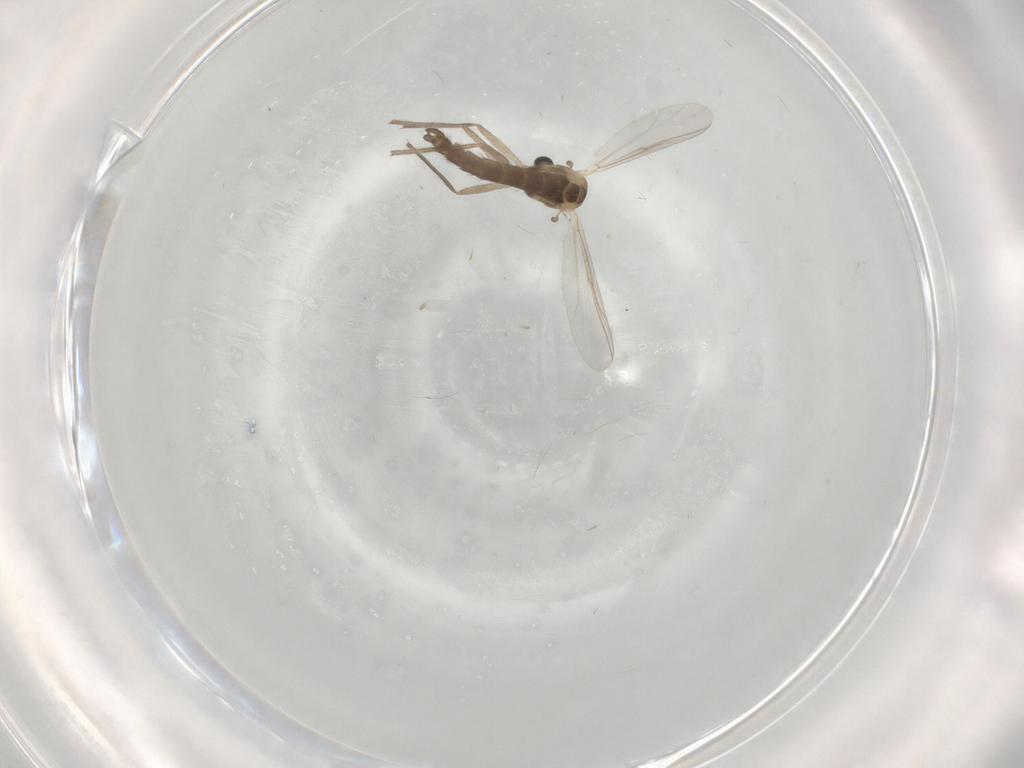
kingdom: Animalia
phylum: Arthropoda
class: Insecta
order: Diptera
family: Chironomidae
